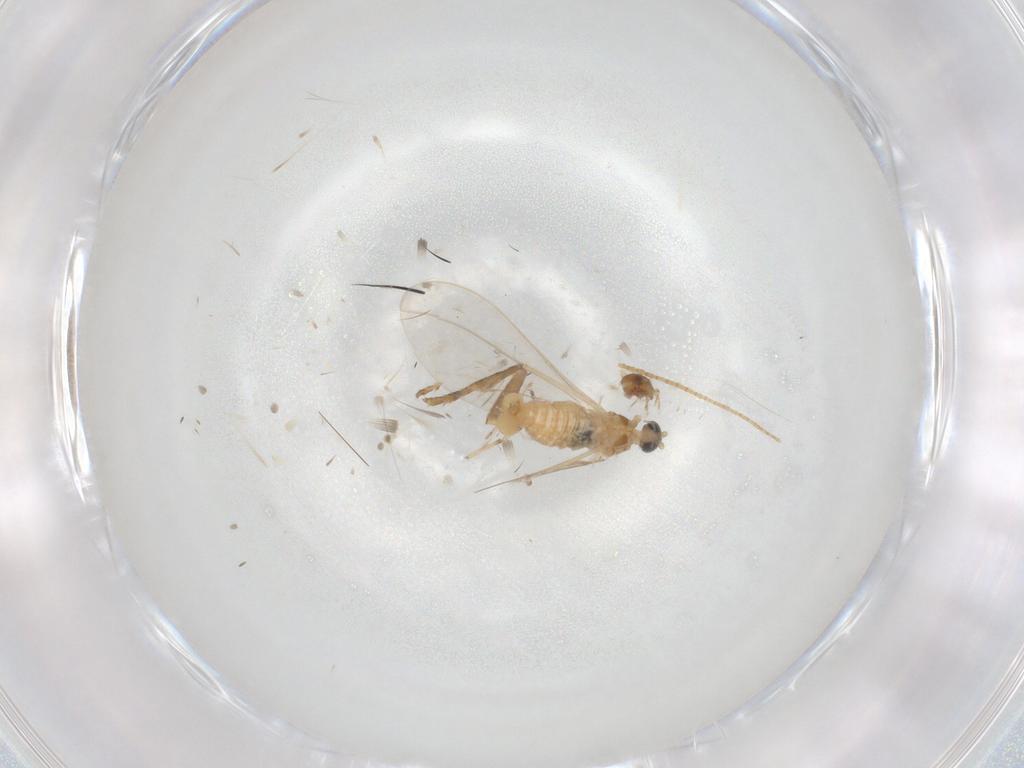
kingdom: Animalia
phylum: Arthropoda
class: Insecta
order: Diptera
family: Cecidomyiidae
